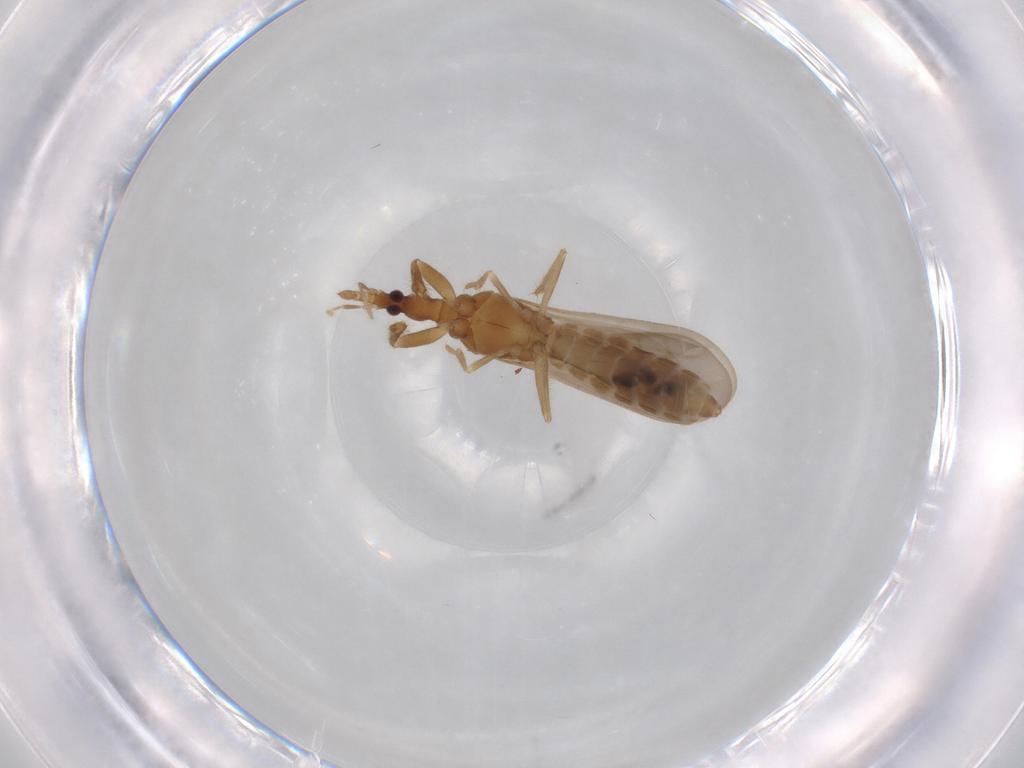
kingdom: Animalia
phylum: Arthropoda
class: Insecta
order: Hemiptera
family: Enicocephalidae
